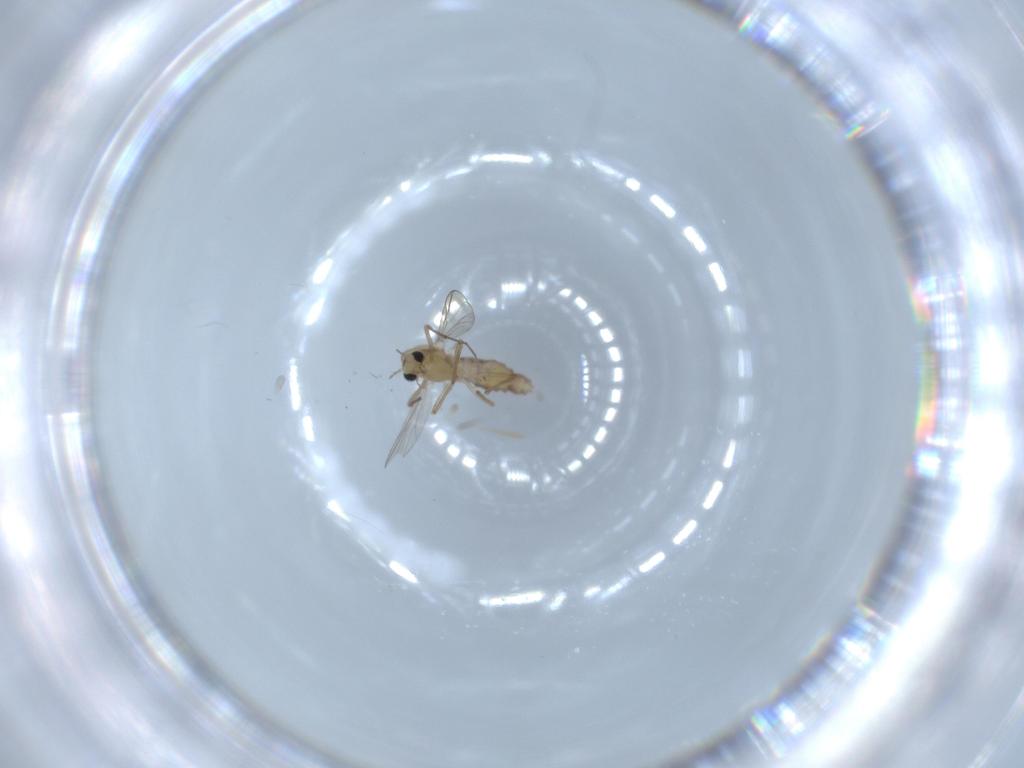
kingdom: Animalia
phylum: Arthropoda
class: Insecta
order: Diptera
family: Chironomidae
